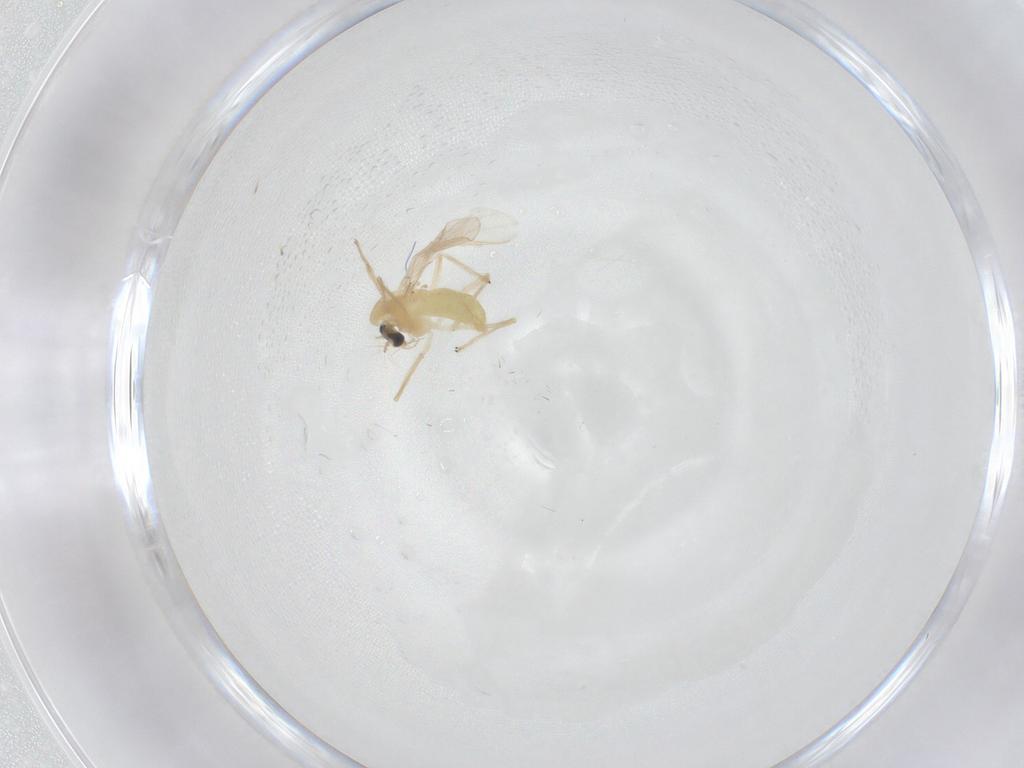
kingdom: Animalia
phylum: Arthropoda
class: Insecta
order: Diptera
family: Chironomidae
